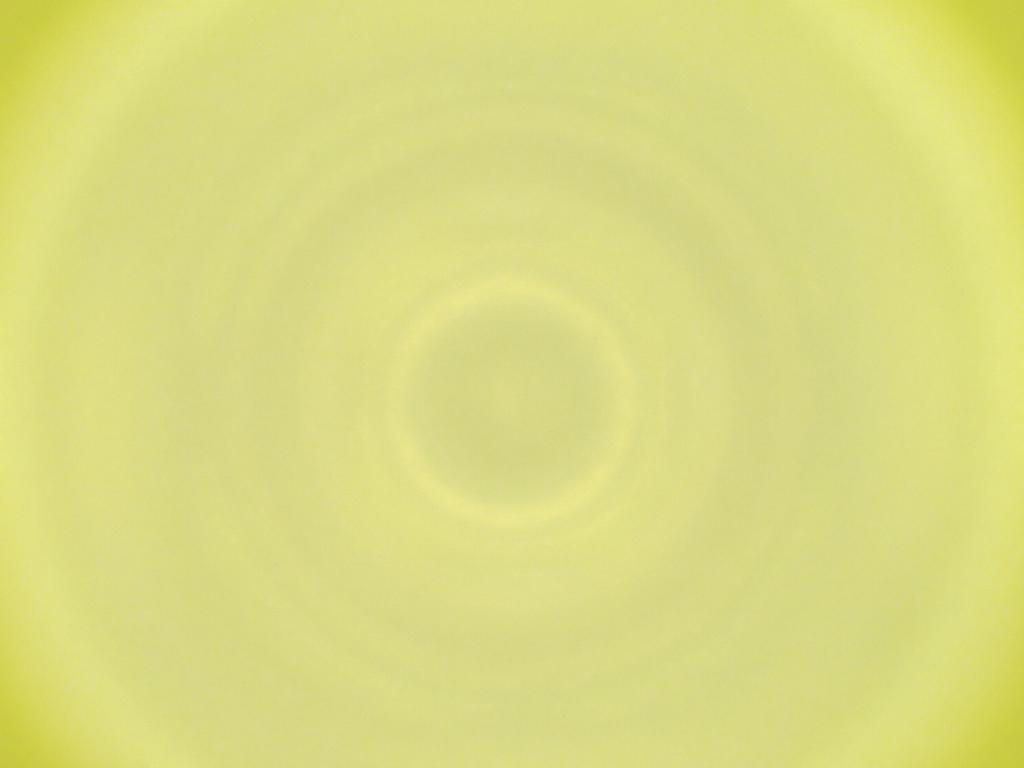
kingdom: Animalia
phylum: Arthropoda
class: Insecta
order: Diptera
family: Cecidomyiidae
